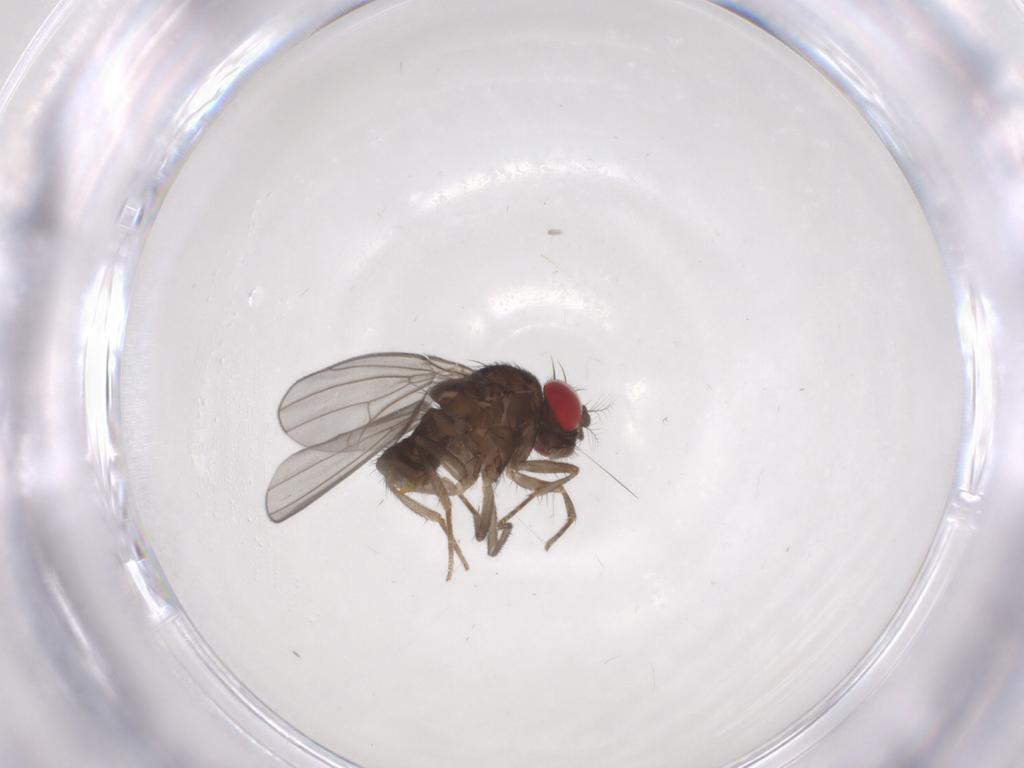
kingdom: Animalia
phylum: Arthropoda
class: Insecta
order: Diptera
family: Drosophilidae
